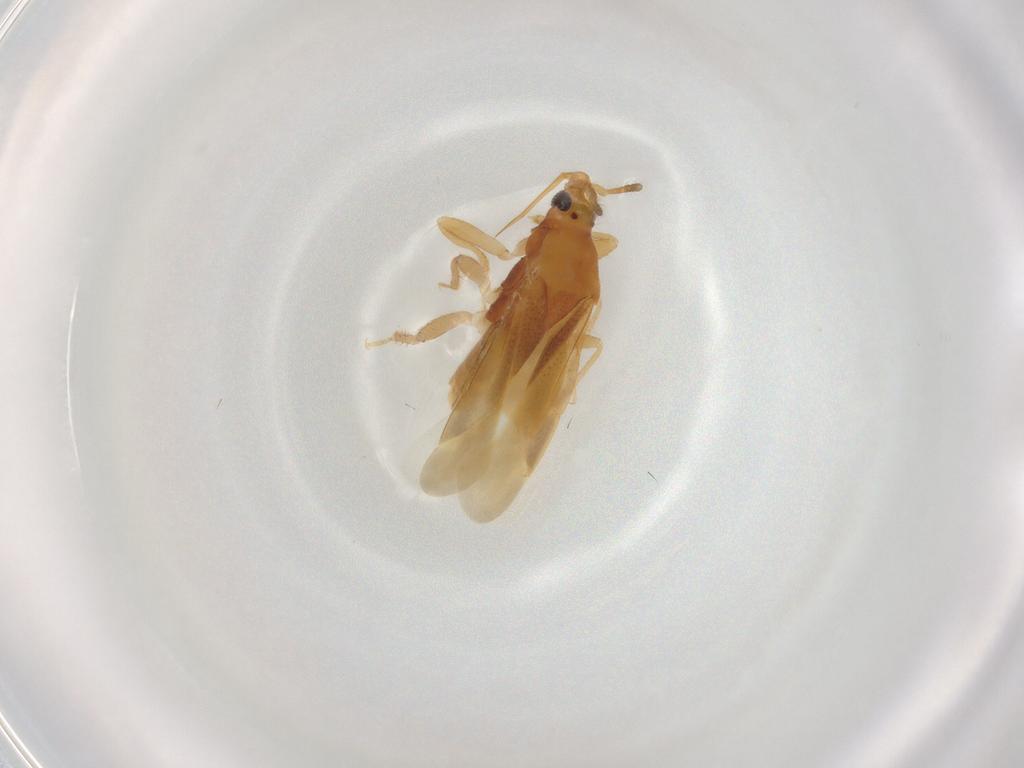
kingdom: Animalia
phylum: Arthropoda
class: Insecta
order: Hemiptera
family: Lasiochilidae
